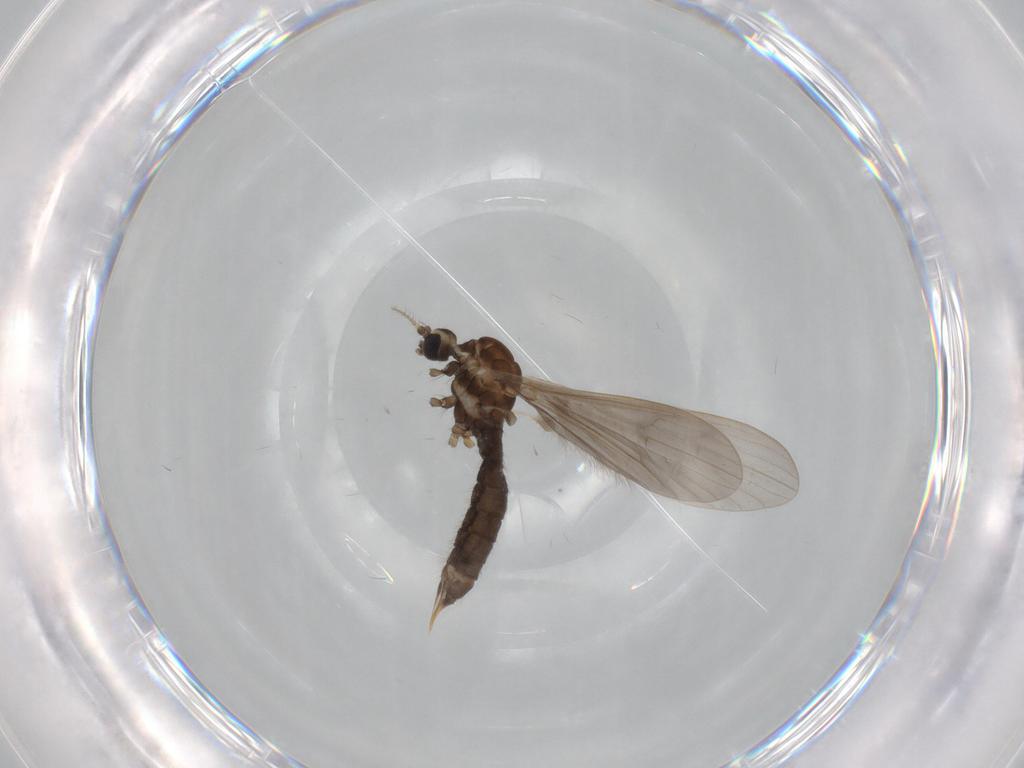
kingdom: Animalia
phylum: Arthropoda
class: Insecta
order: Diptera
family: Limoniidae
